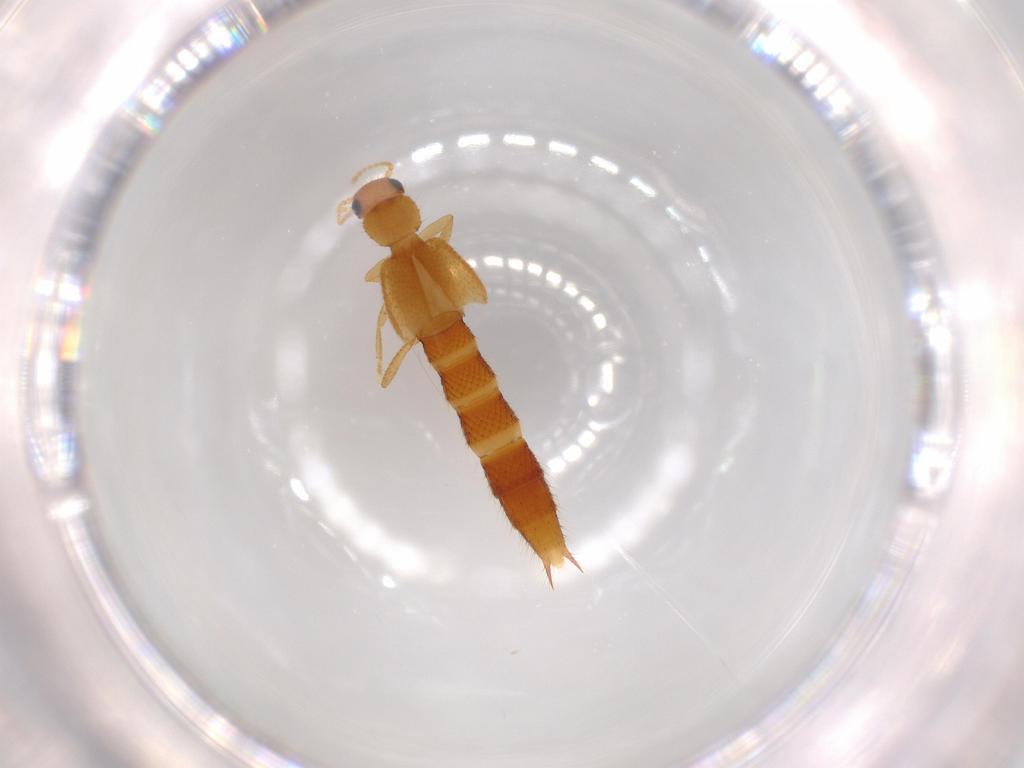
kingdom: Animalia
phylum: Arthropoda
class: Insecta
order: Coleoptera
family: Staphylinidae
